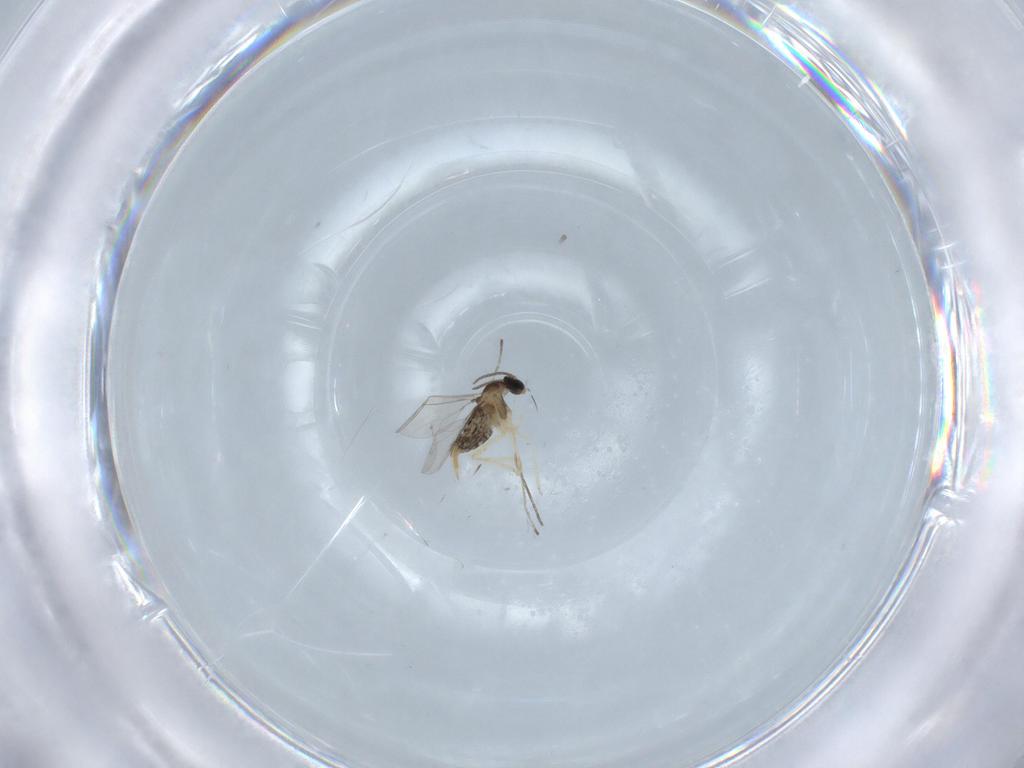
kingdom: Animalia
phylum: Arthropoda
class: Insecta
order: Diptera
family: Cecidomyiidae
